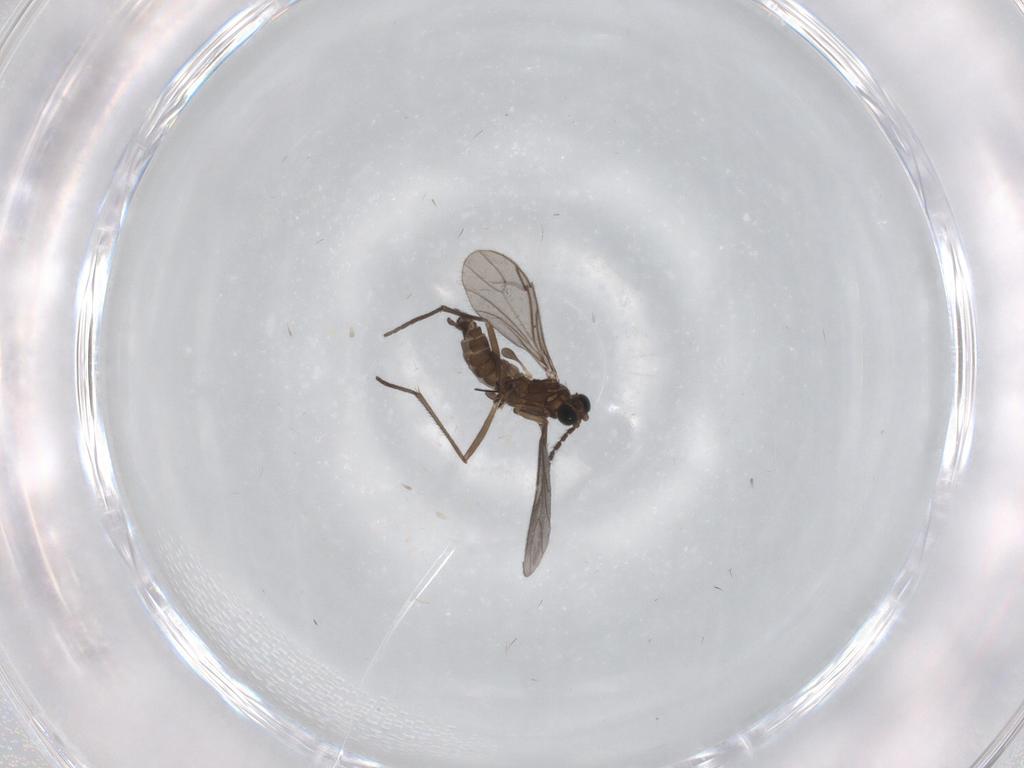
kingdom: Animalia
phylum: Arthropoda
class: Insecta
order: Diptera
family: Sciaridae
